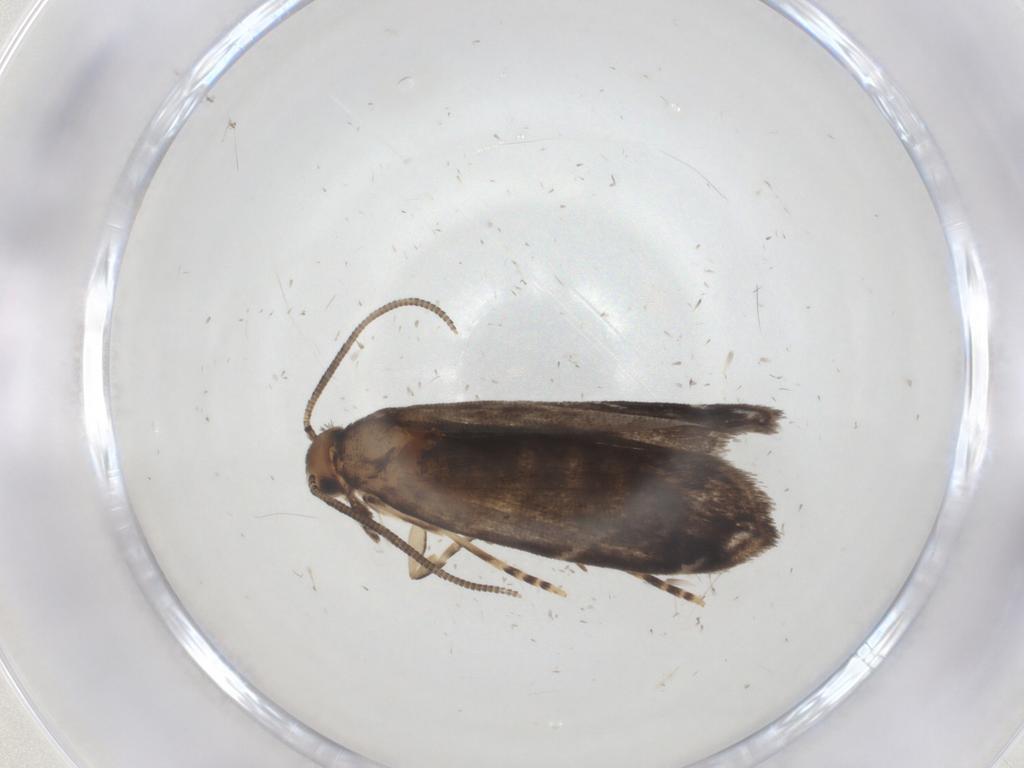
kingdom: Animalia
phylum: Arthropoda
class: Insecta
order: Lepidoptera
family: Dryadaulidae
